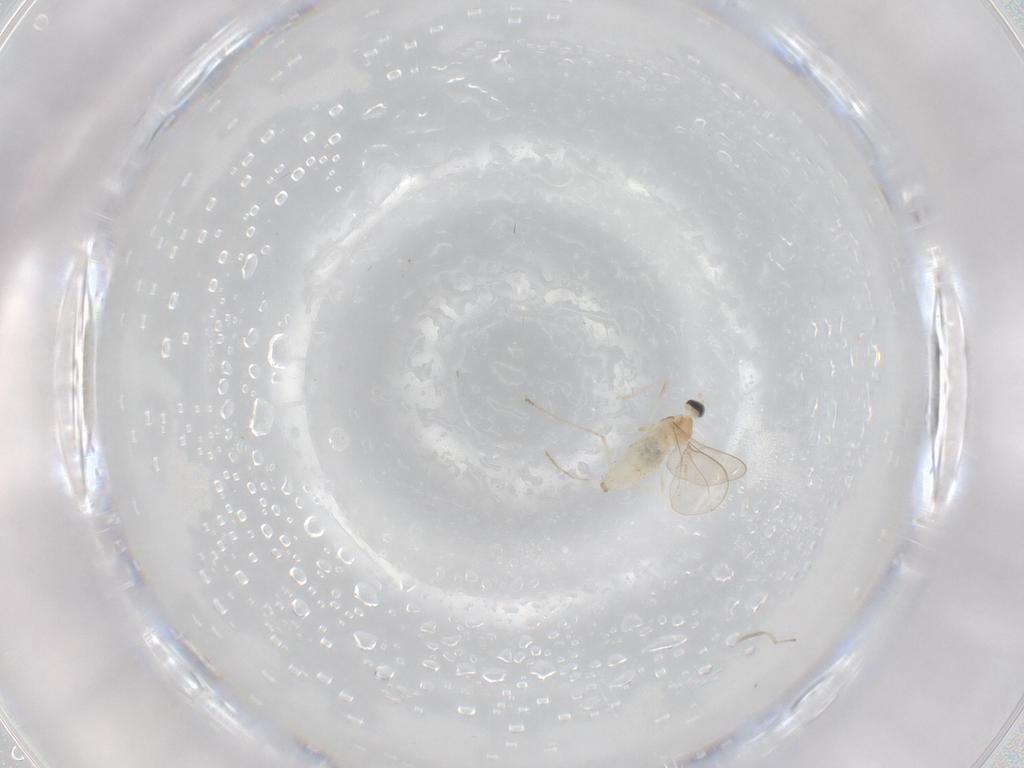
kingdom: Animalia
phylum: Arthropoda
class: Insecta
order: Diptera
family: Cecidomyiidae
